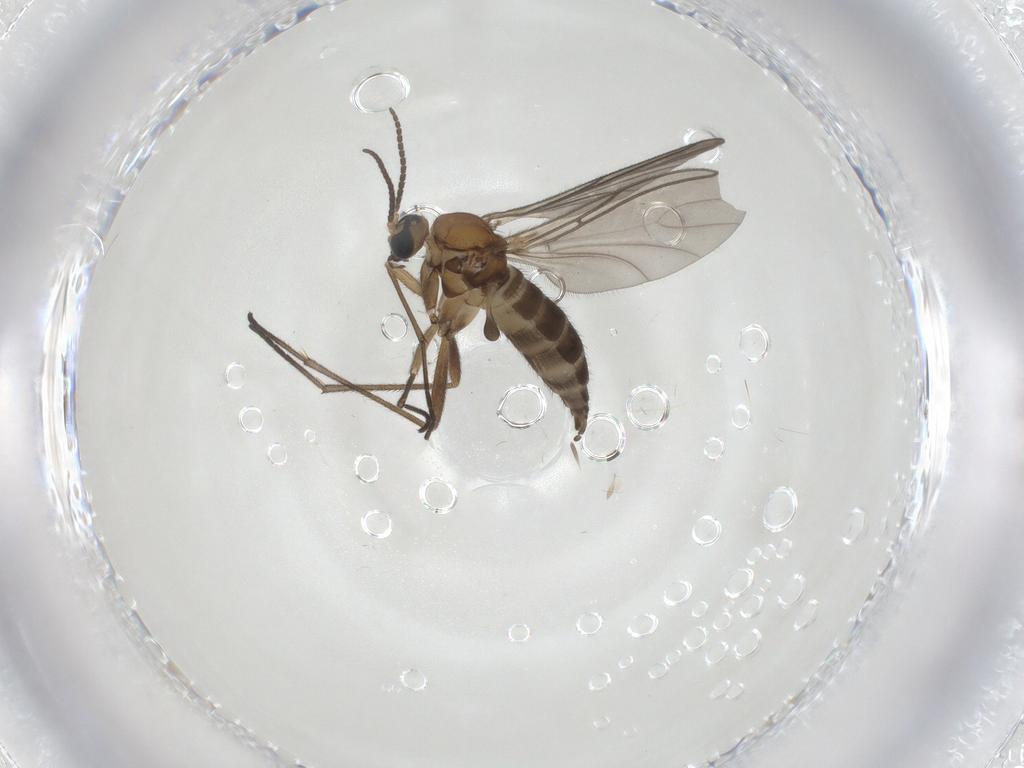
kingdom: Animalia
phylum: Arthropoda
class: Insecta
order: Diptera
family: Sciaridae
